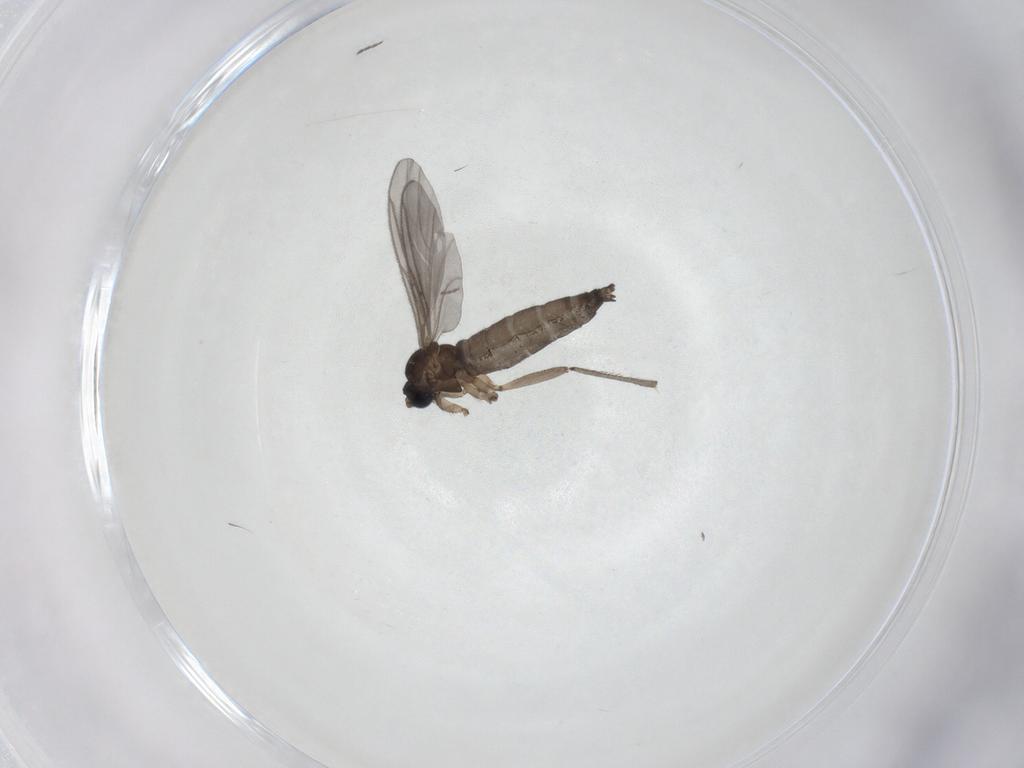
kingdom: Animalia
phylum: Arthropoda
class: Insecta
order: Diptera
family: Sciaridae
